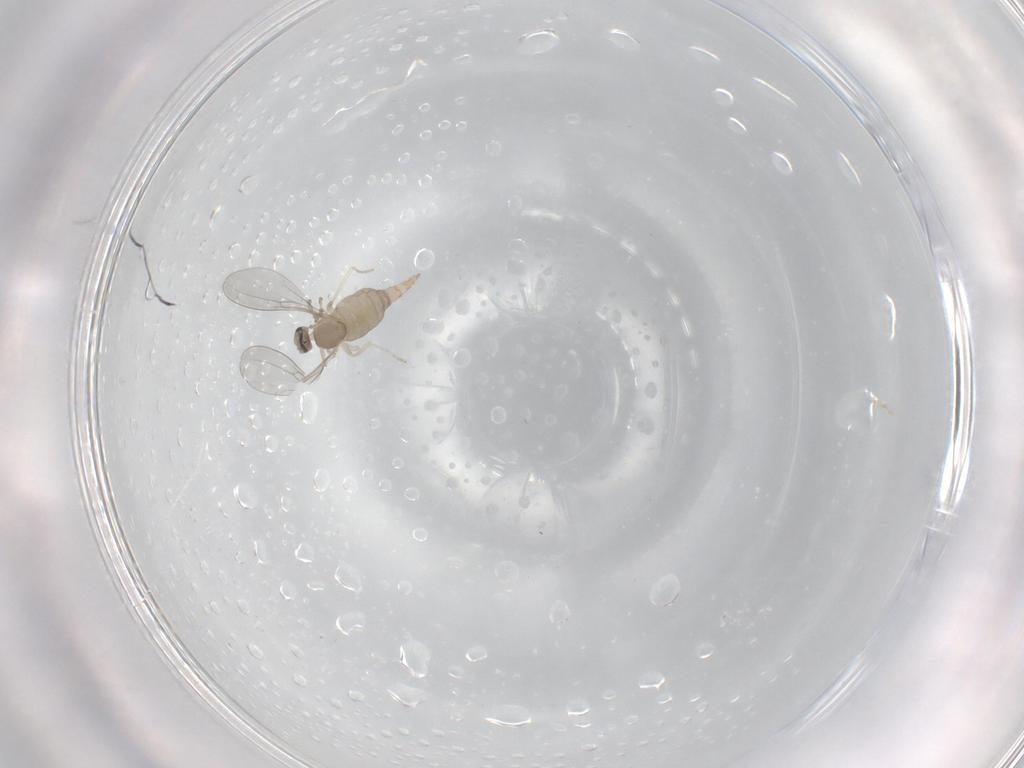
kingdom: Animalia
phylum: Arthropoda
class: Insecta
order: Diptera
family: Cecidomyiidae
